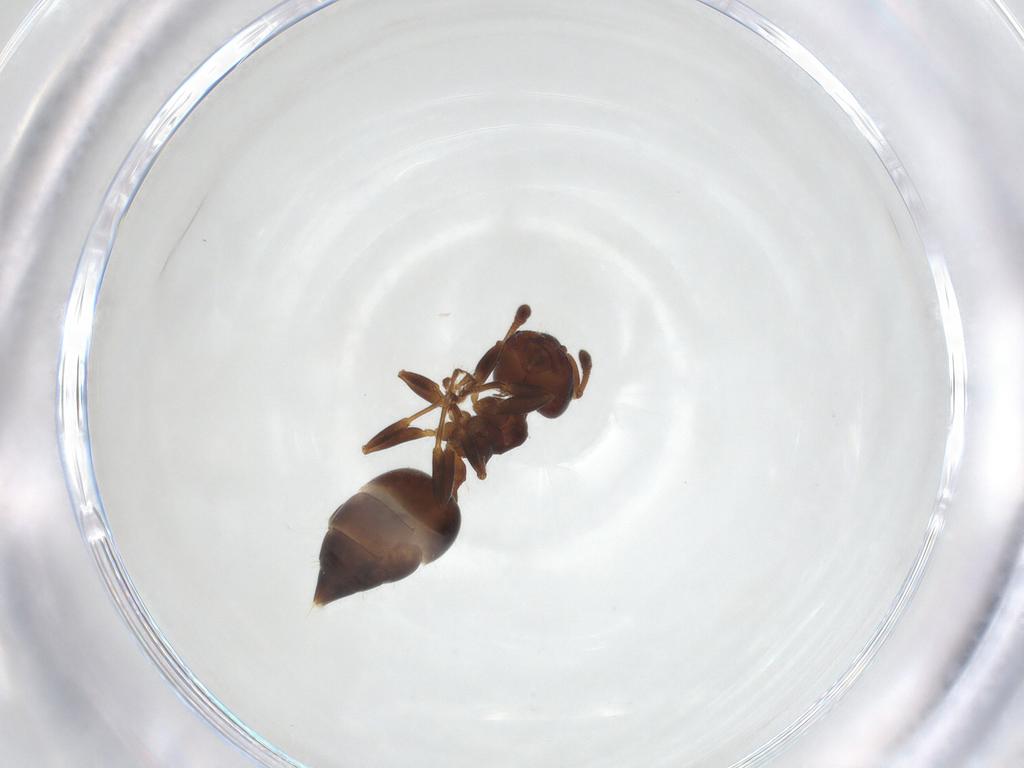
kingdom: Animalia
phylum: Arthropoda
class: Insecta
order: Hymenoptera
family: Formicidae
